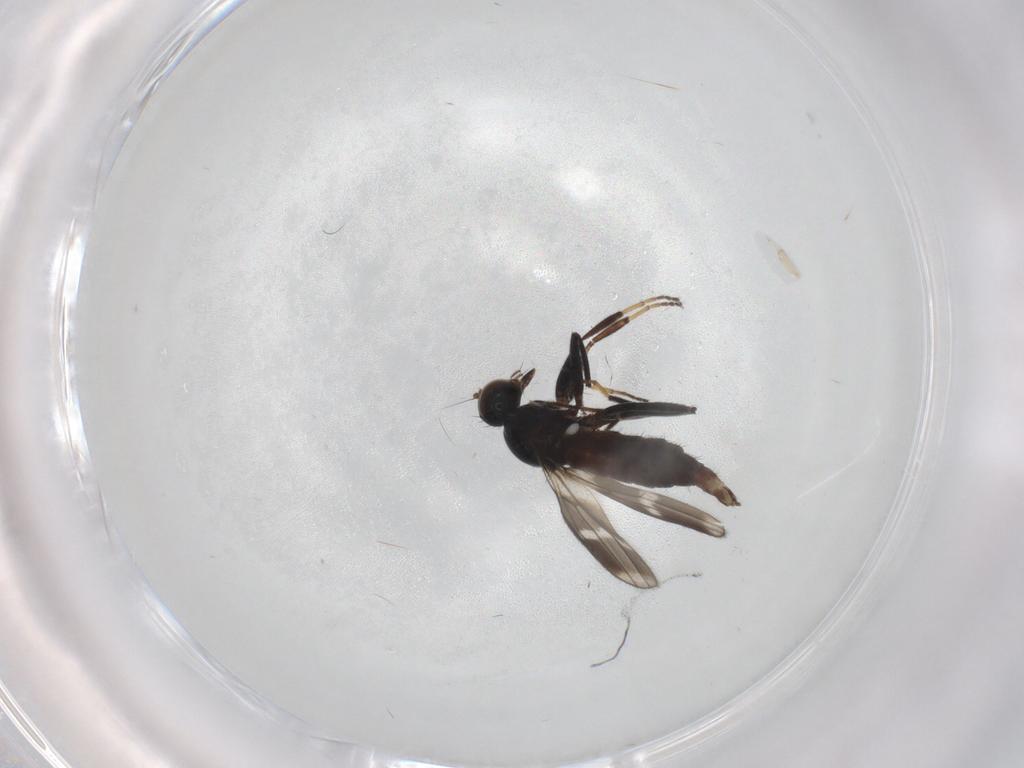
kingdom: Animalia
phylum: Arthropoda
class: Insecta
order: Diptera
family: Hybotidae
